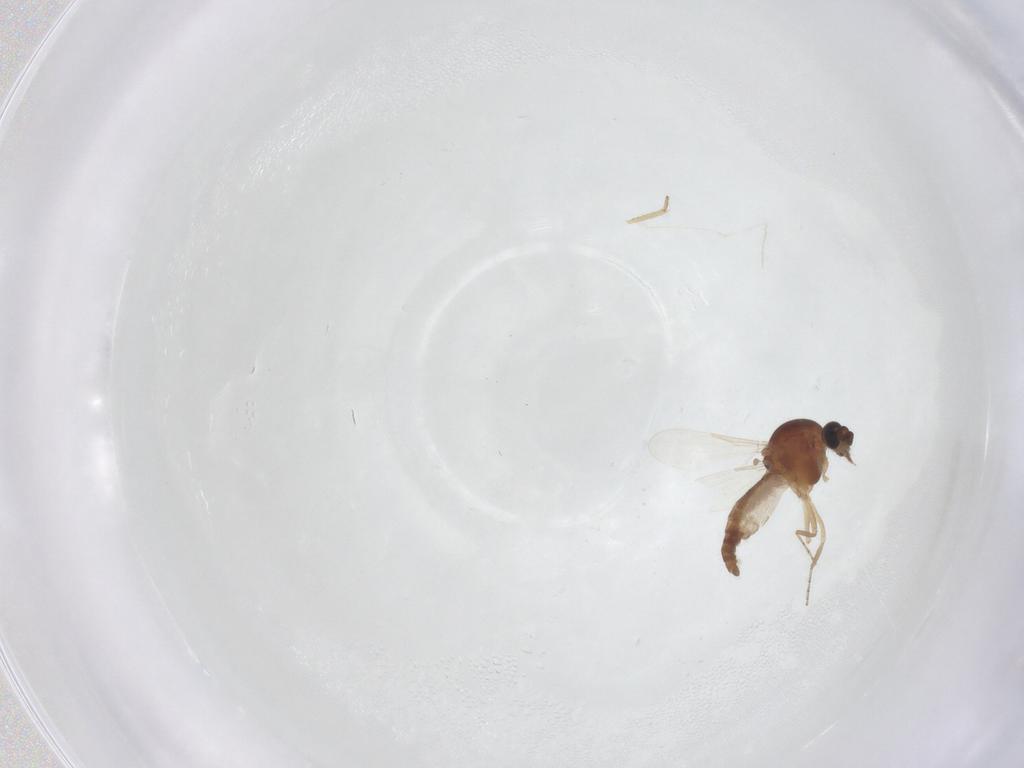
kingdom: Animalia
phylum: Arthropoda
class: Insecta
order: Diptera
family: Ceratopogonidae
